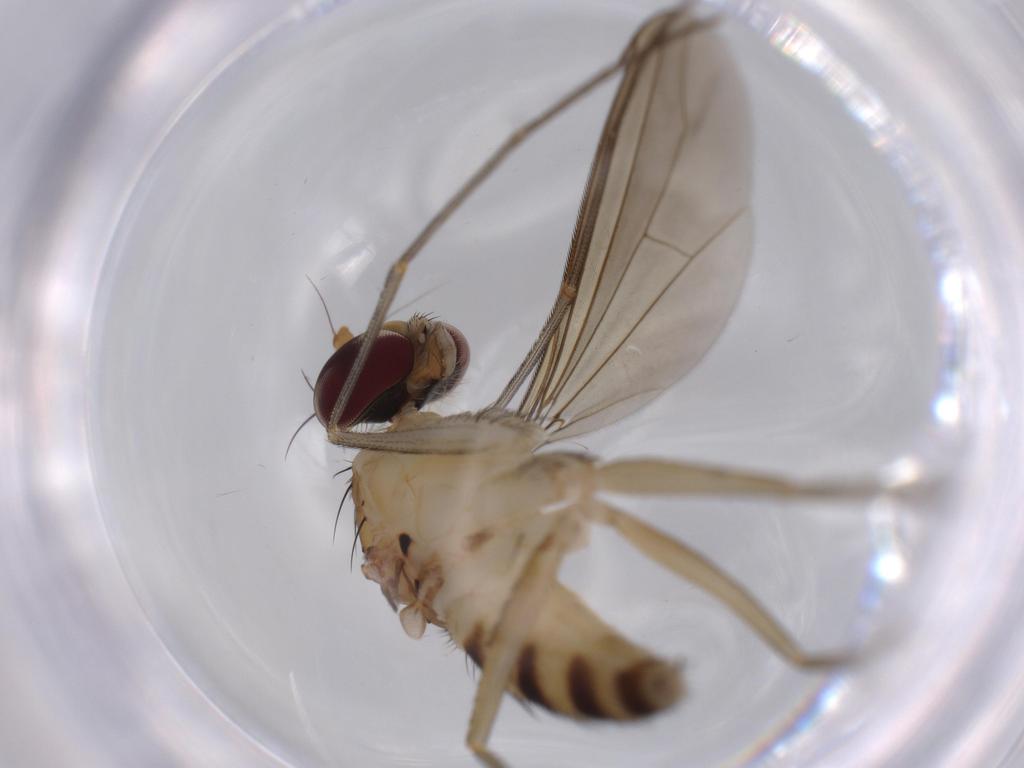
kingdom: Animalia
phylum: Arthropoda
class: Insecta
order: Diptera
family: Dolichopodidae
